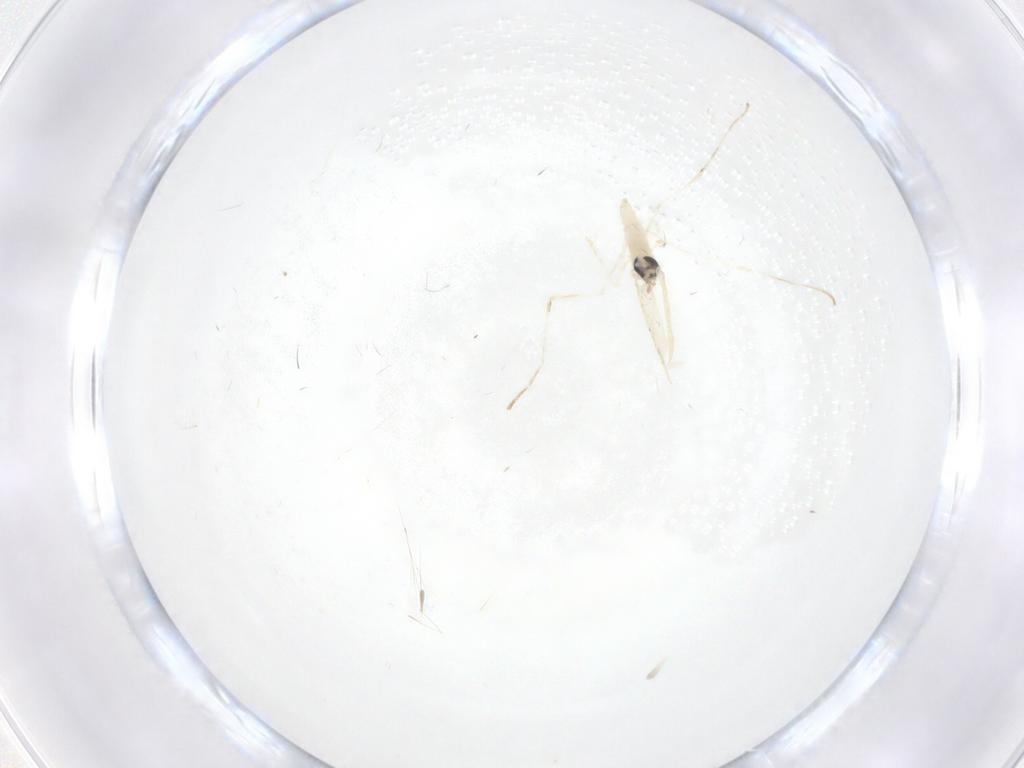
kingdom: Animalia
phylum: Arthropoda
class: Insecta
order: Diptera
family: Cecidomyiidae
